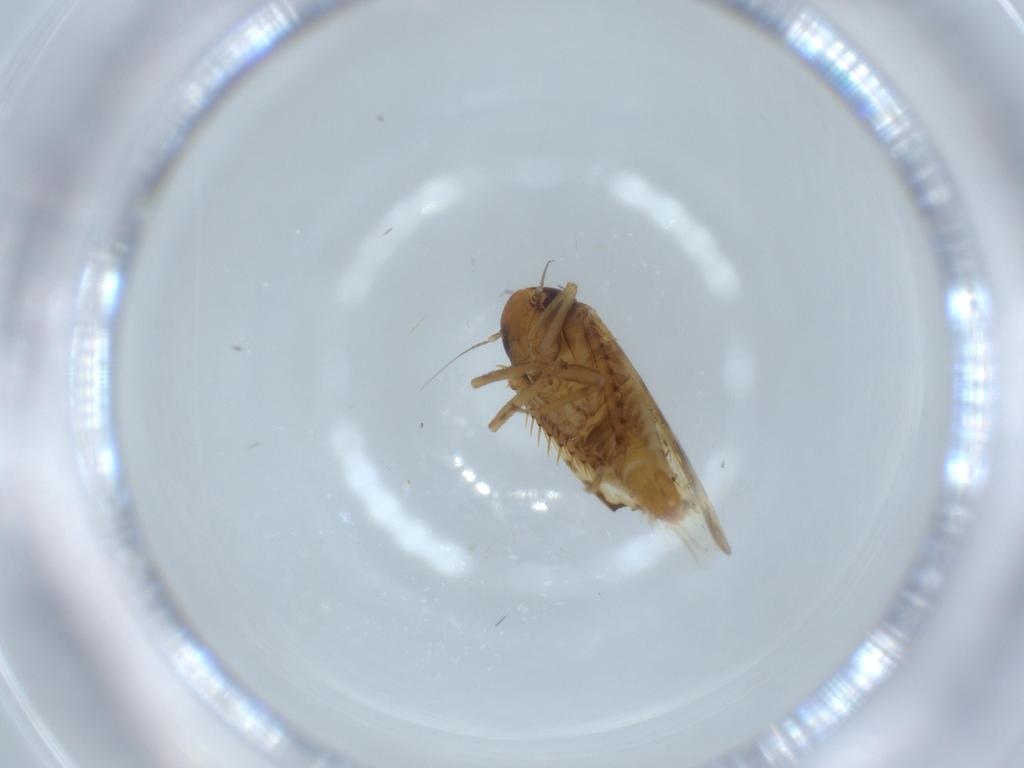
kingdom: Animalia
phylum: Arthropoda
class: Insecta
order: Hemiptera
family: Cicadellidae
